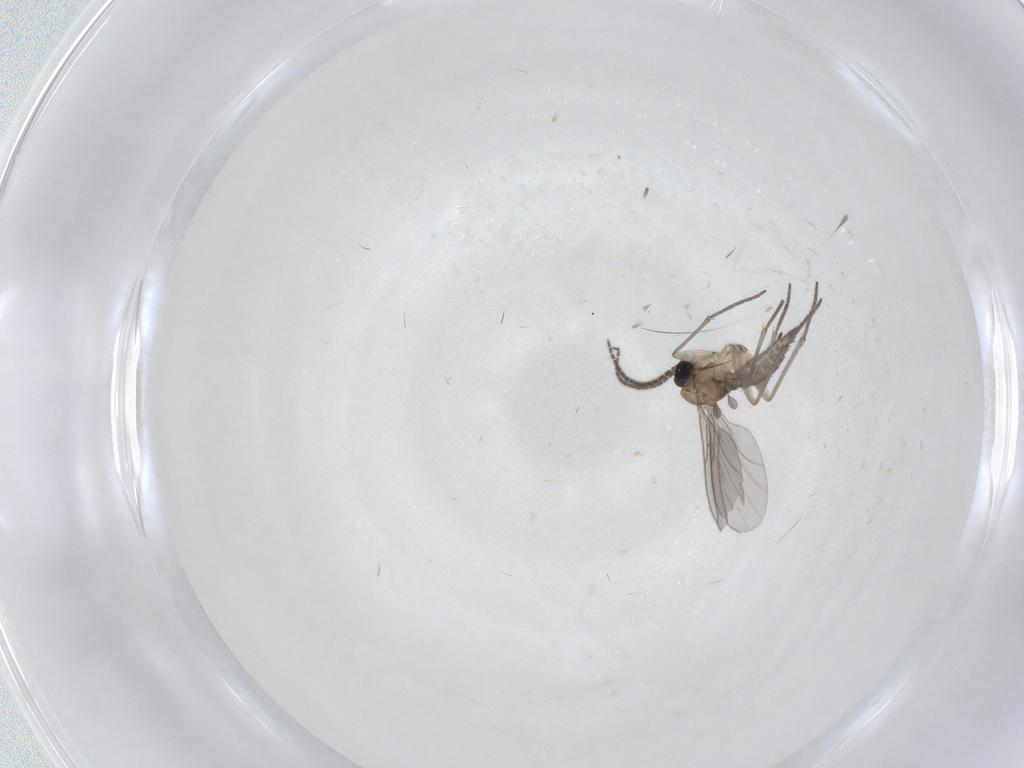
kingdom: Animalia
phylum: Arthropoda
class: Insecta
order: Diptera
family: Sciaridae
